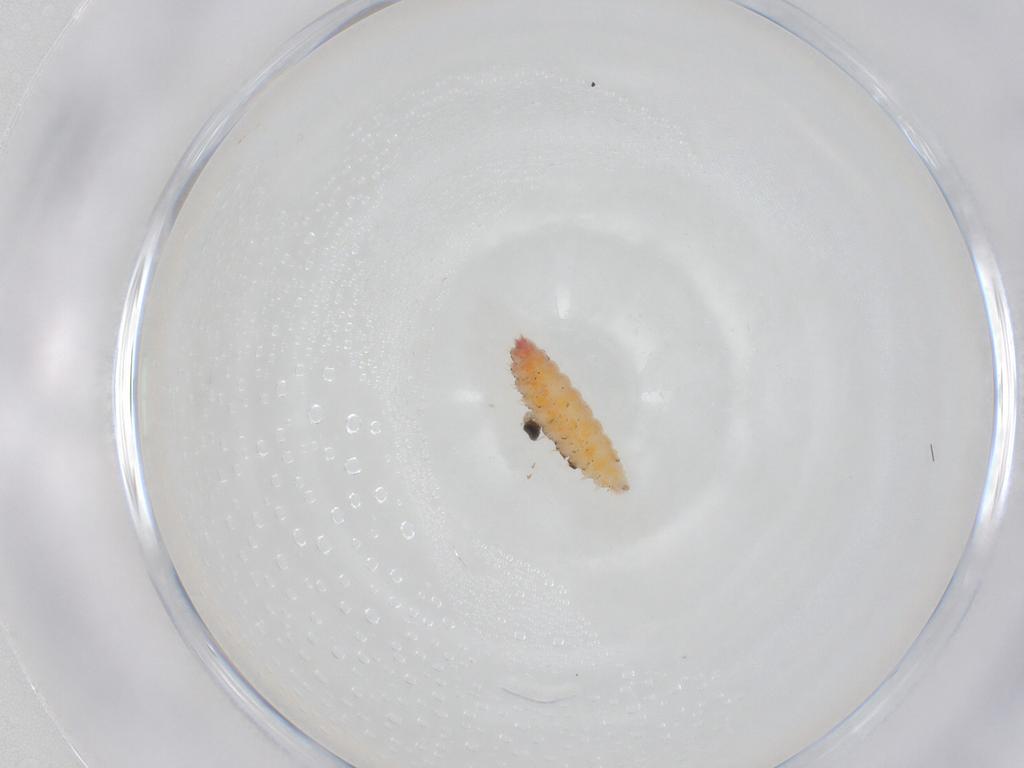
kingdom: Animalia
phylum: Arthropoda
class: Insecta
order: Diptera
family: Cecidomyiidae
